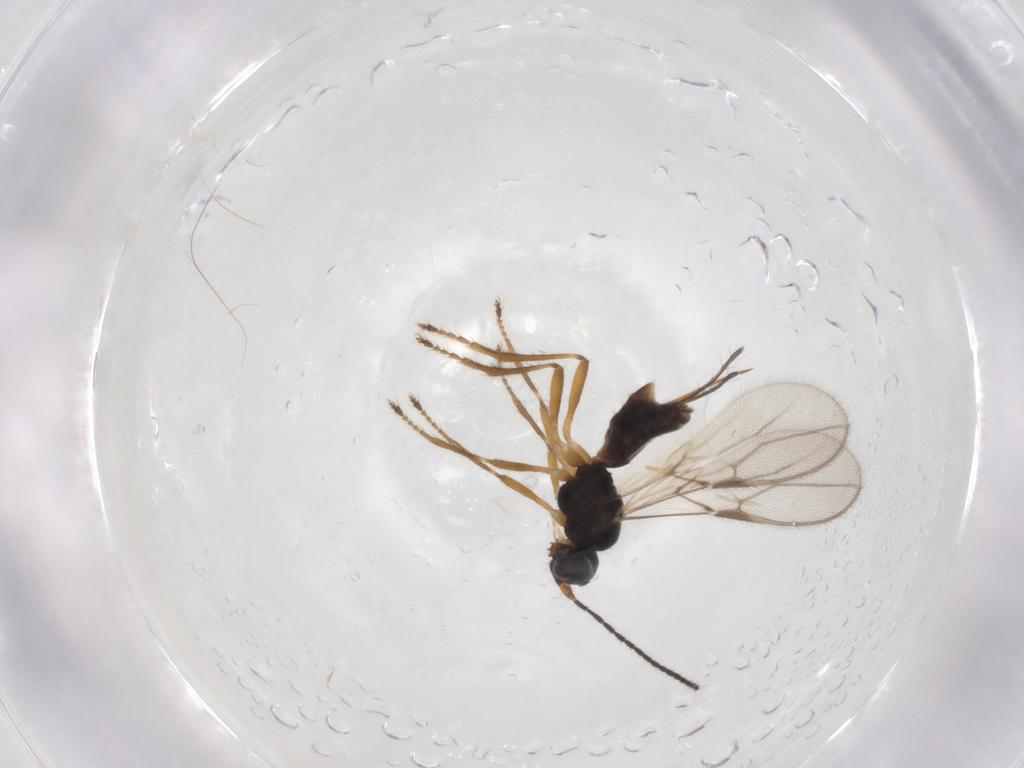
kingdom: Animalia
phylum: Arthropoda
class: Insecta
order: Hymenoptera
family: Braconidae
